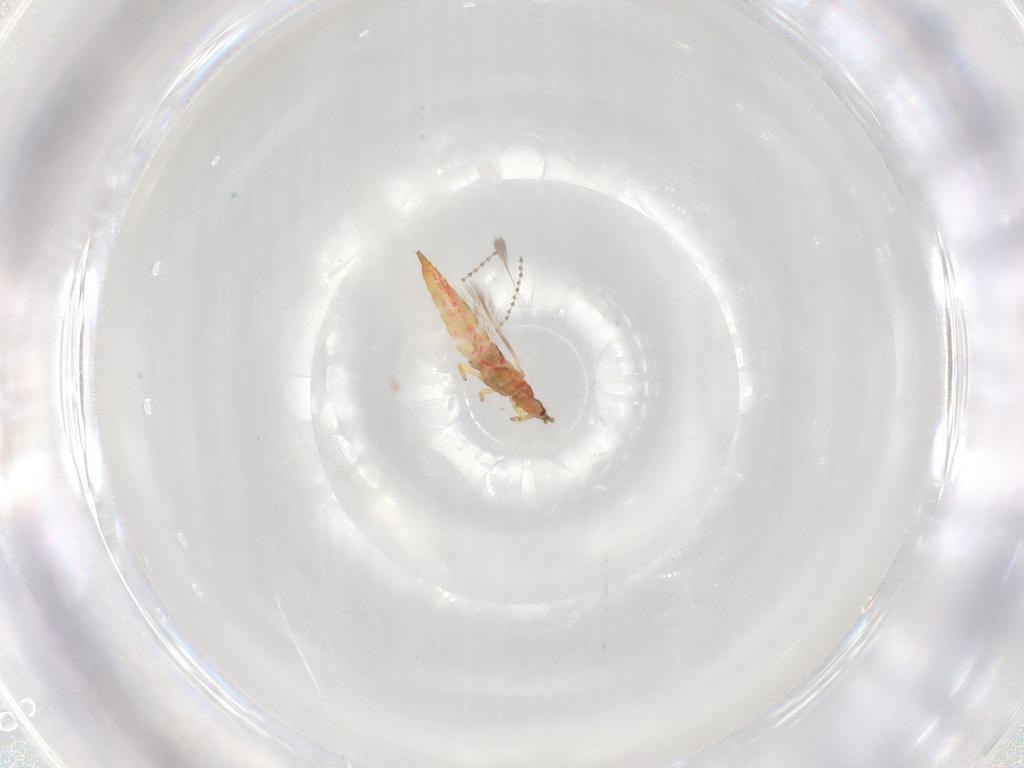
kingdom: Animalia
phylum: Arthropoda
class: Insecta
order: Thysanoptera
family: Phlaeothripidae
